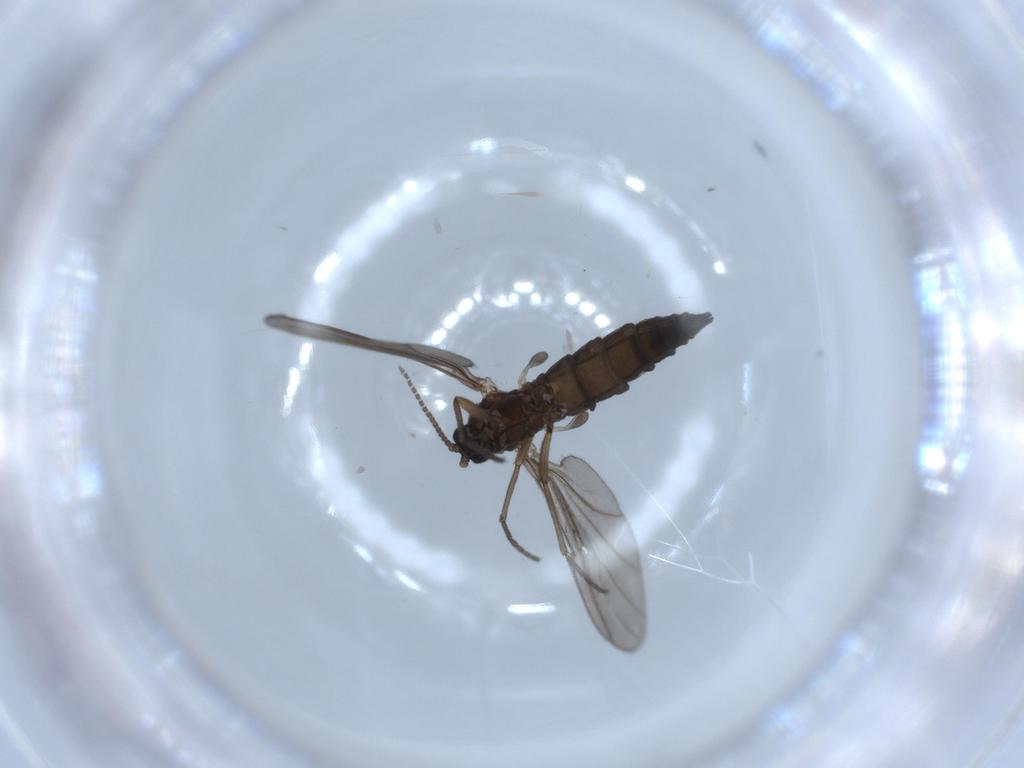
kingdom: Animalia
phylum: Arthropoda
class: Insecta
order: Diptera
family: Sciaridae
